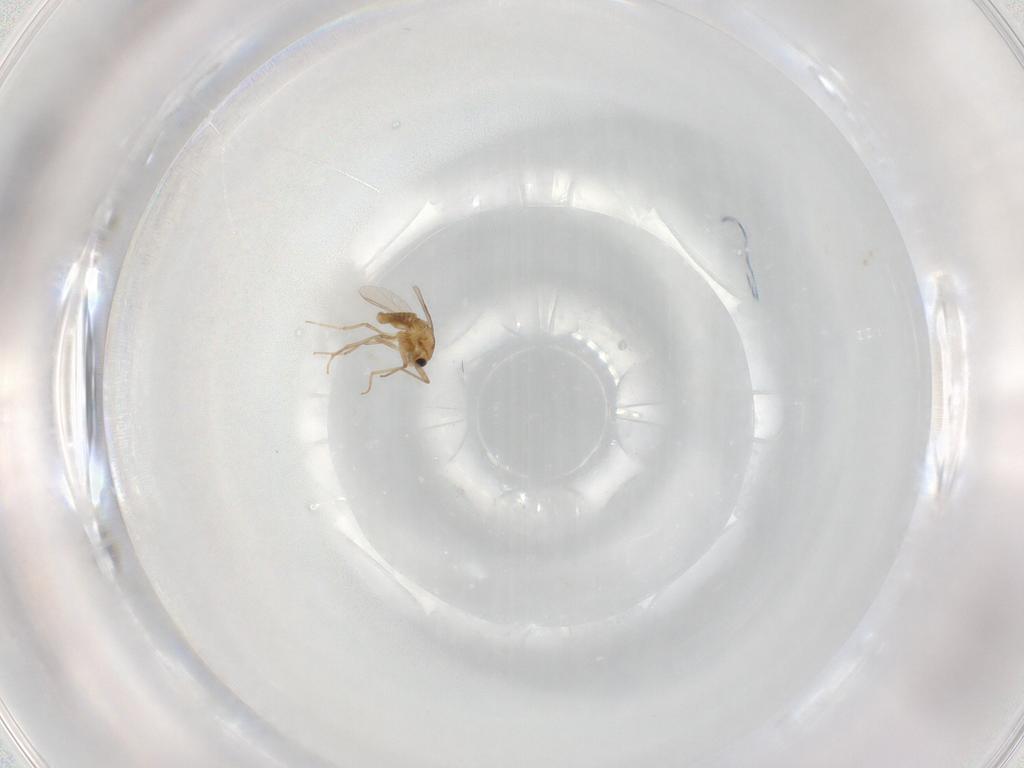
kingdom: Animalia
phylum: Arthropoda
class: Insecta
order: Diptera
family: Chironomidae
